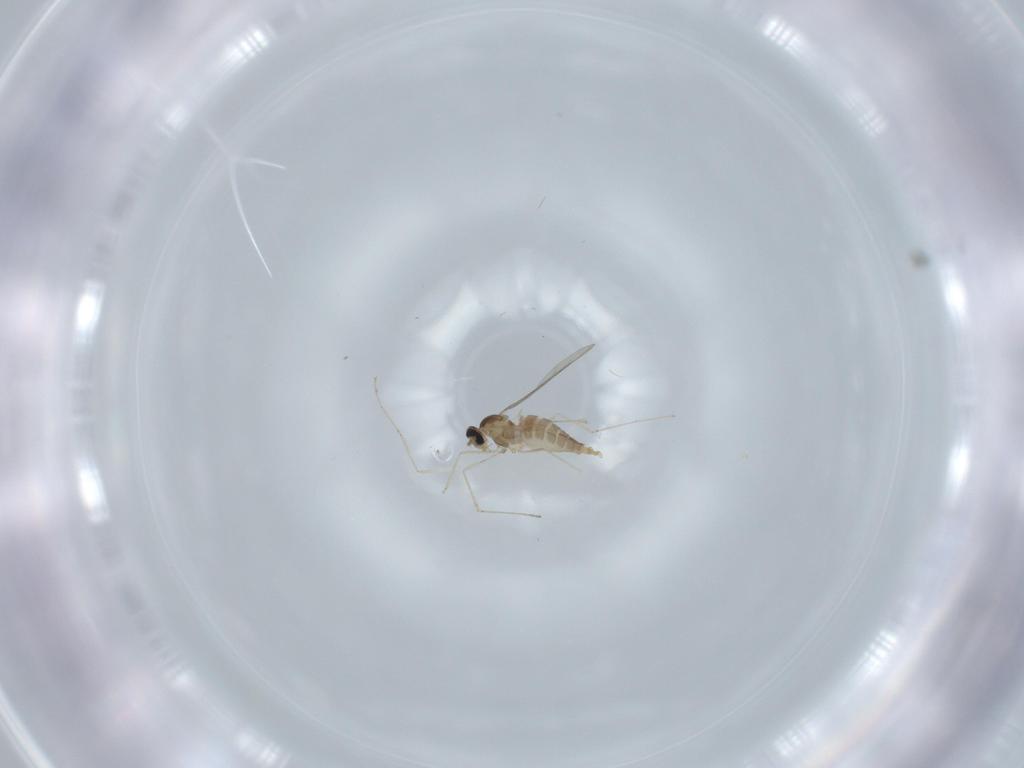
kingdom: Animalia
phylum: Arthropoda
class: Insecta
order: Diptera
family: Cecidomyiidae
